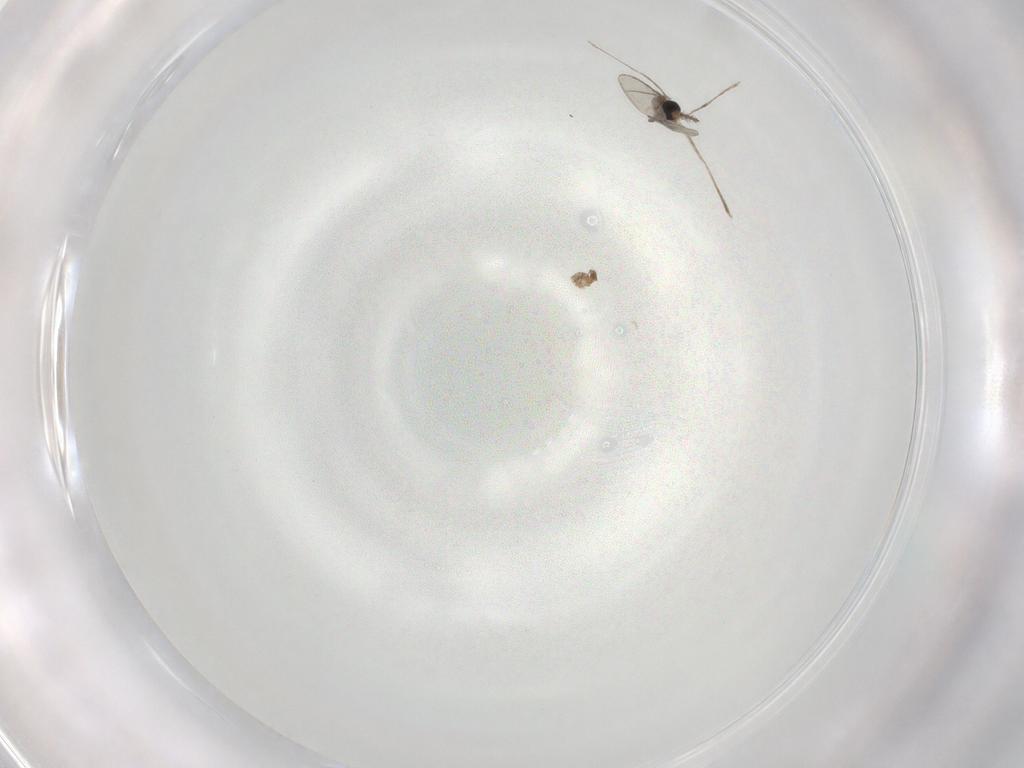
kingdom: Animalia
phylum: Arthropoda
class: Insecta
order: Diptera
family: Cecidomyiidae
